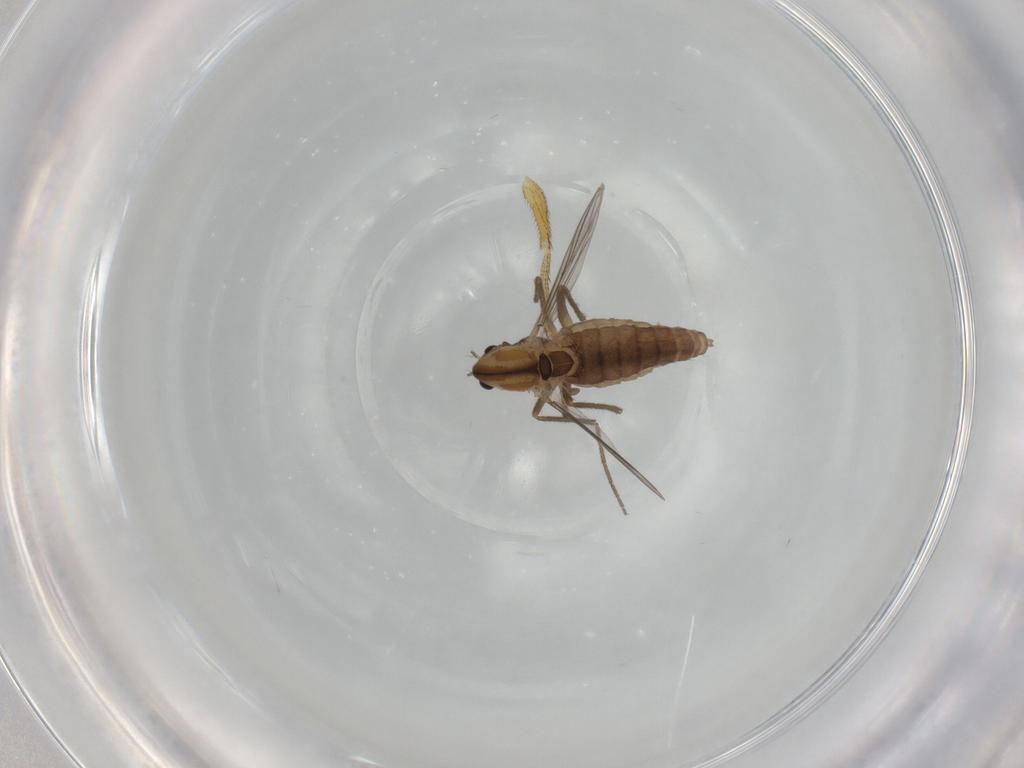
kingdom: Animalia
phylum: Arthropoda
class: Insecta
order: Diptera
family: Chironomidae
